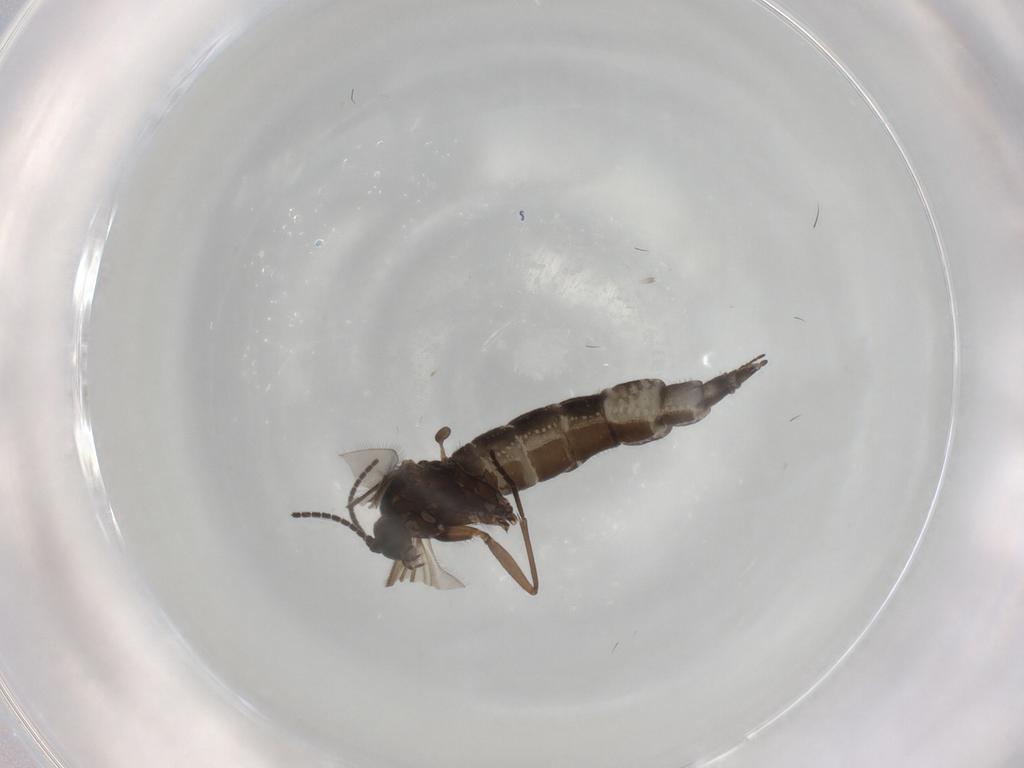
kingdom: Animalia
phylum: Arthropoda
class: Insecta
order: Diptera
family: Sciaridae
